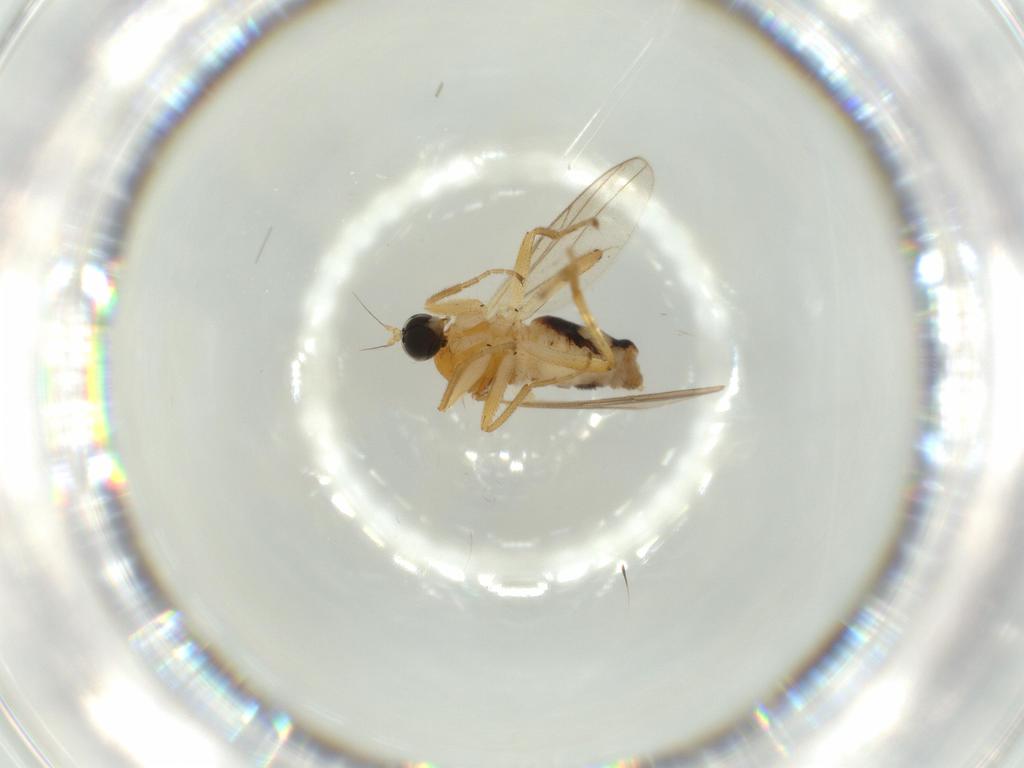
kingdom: Animalia
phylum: Arthropoda
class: Insecta
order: Diptera
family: Hybotidae
